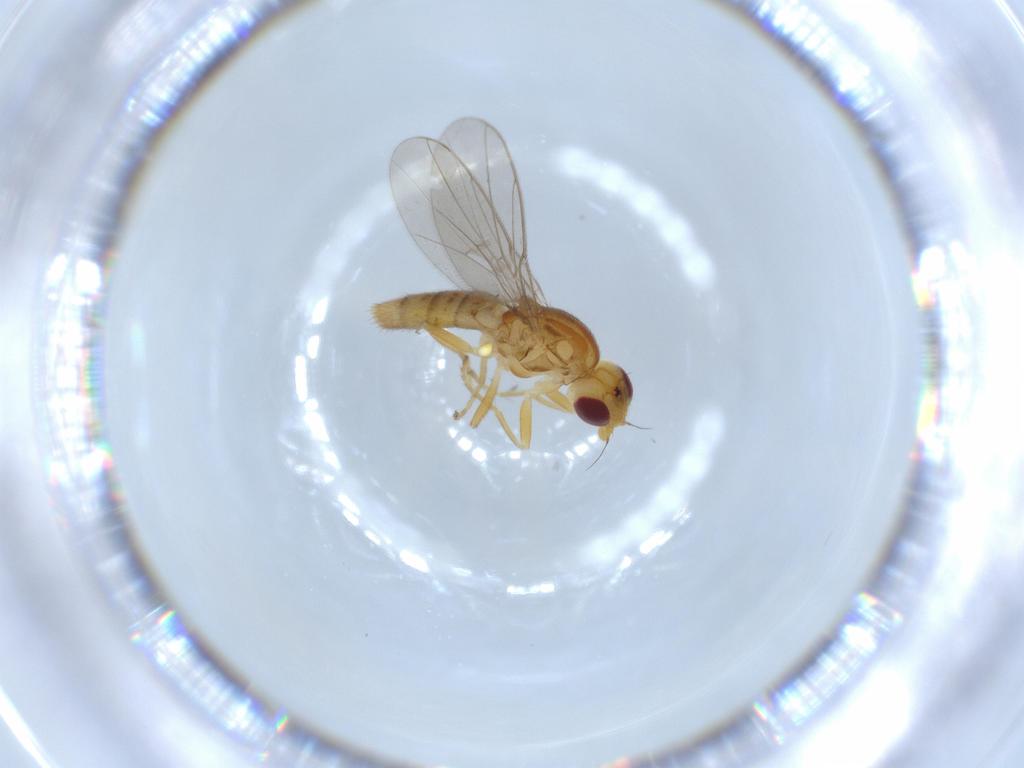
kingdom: Animalia
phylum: Arthropoda
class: Insecta
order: Diptera
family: Chloropidae
